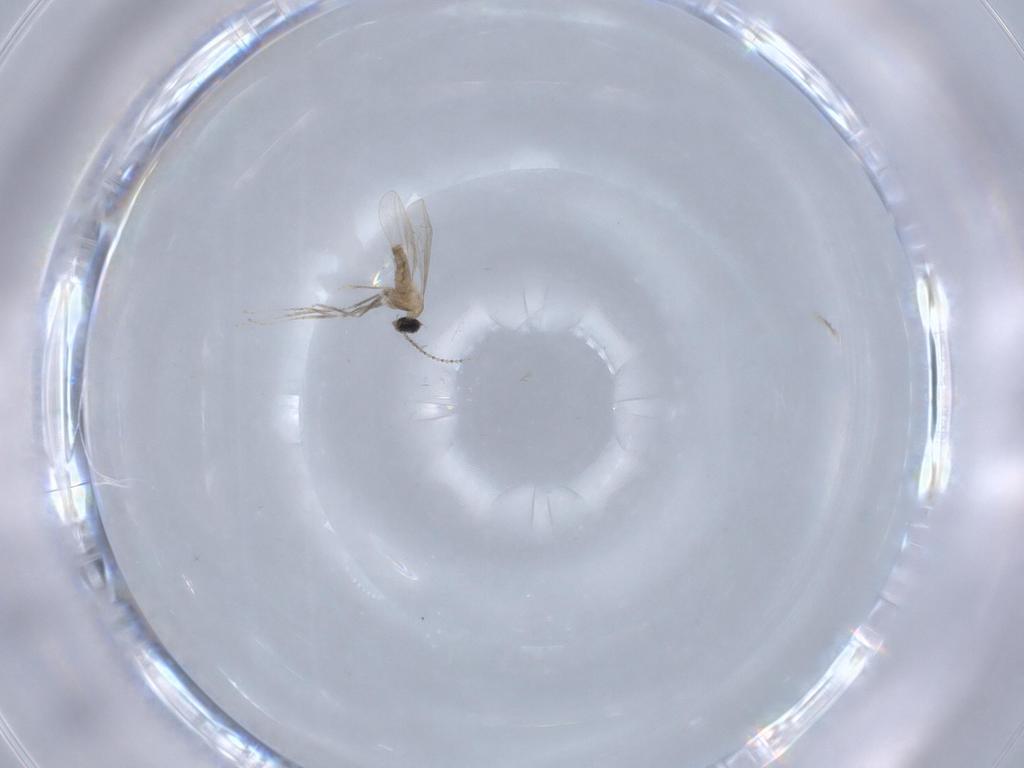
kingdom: Animalia
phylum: Arthropoda
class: Insecta
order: Diptera
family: Cecidomyiidae
